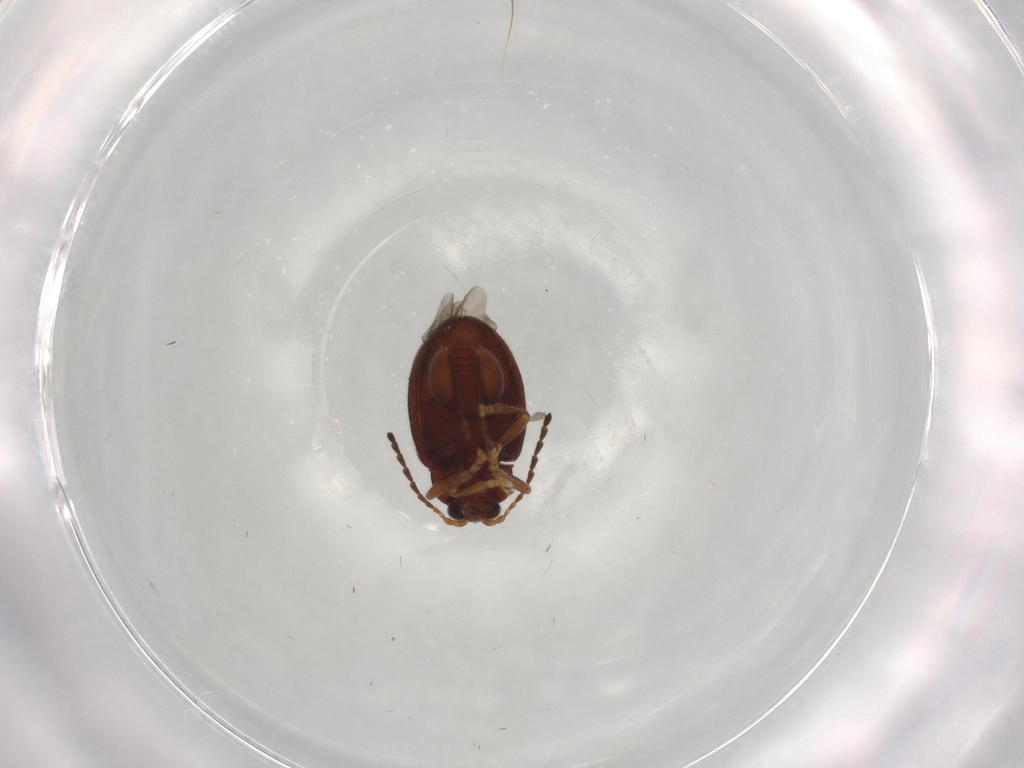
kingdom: Animalia
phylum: Arthropoda
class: Insecta
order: Coleoptera
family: Chrysomelidae
